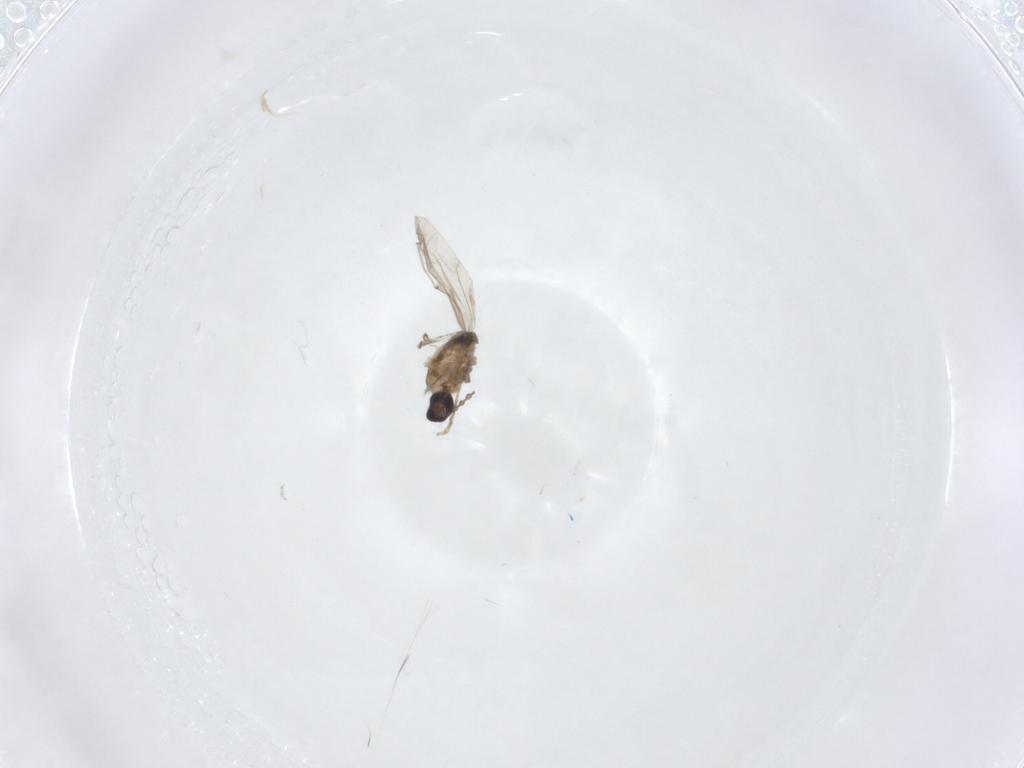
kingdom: Animalia
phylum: Arthropoda
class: Insecta
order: Diptera
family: Cecidomyiidae
